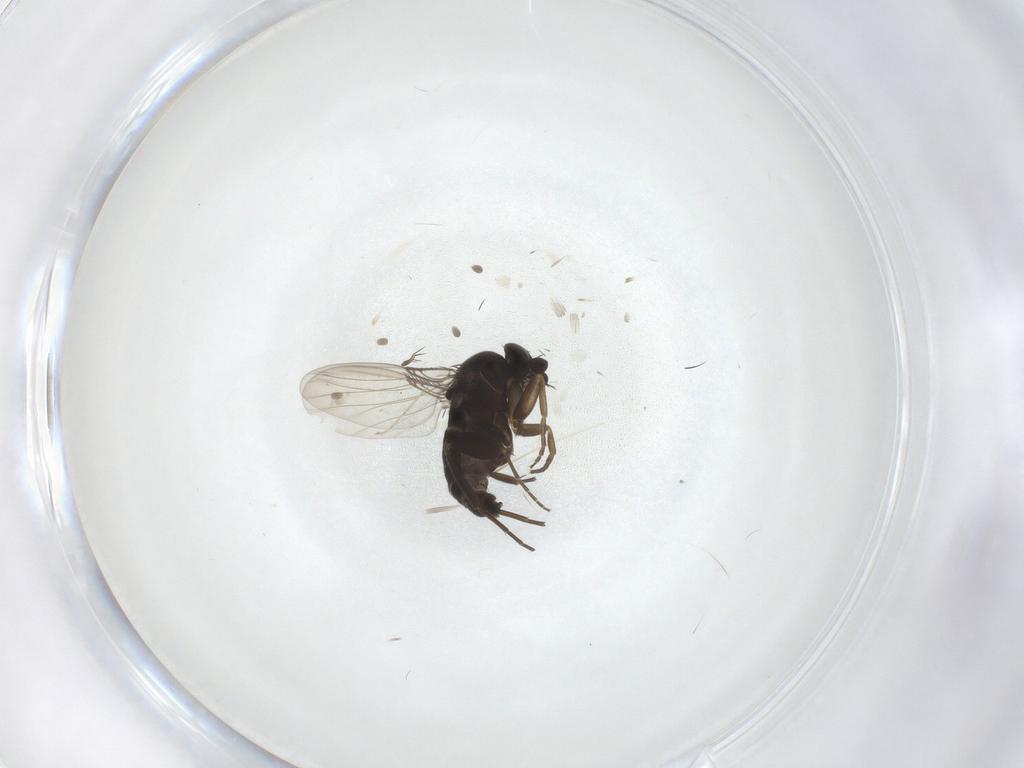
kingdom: Animalia
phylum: Arthropoda
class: Insecta
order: Diptera
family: Cecidomyiidae
